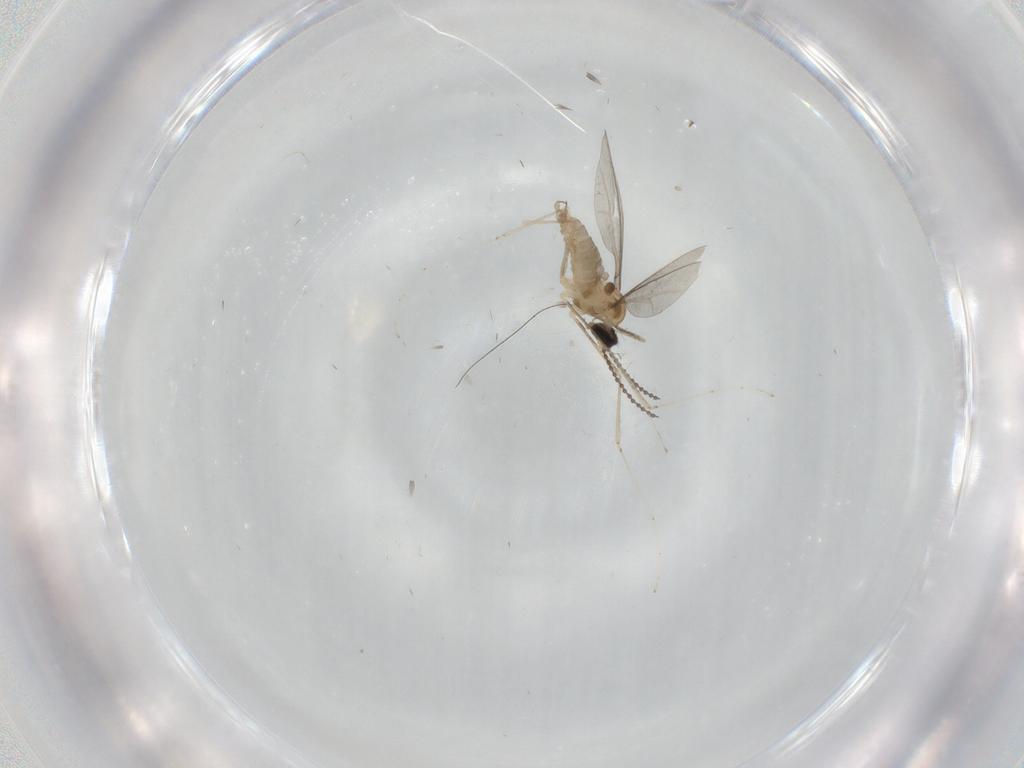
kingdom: Animalia
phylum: Arthropoda
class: Insecta
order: Diptera
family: Cecidomyiidae
